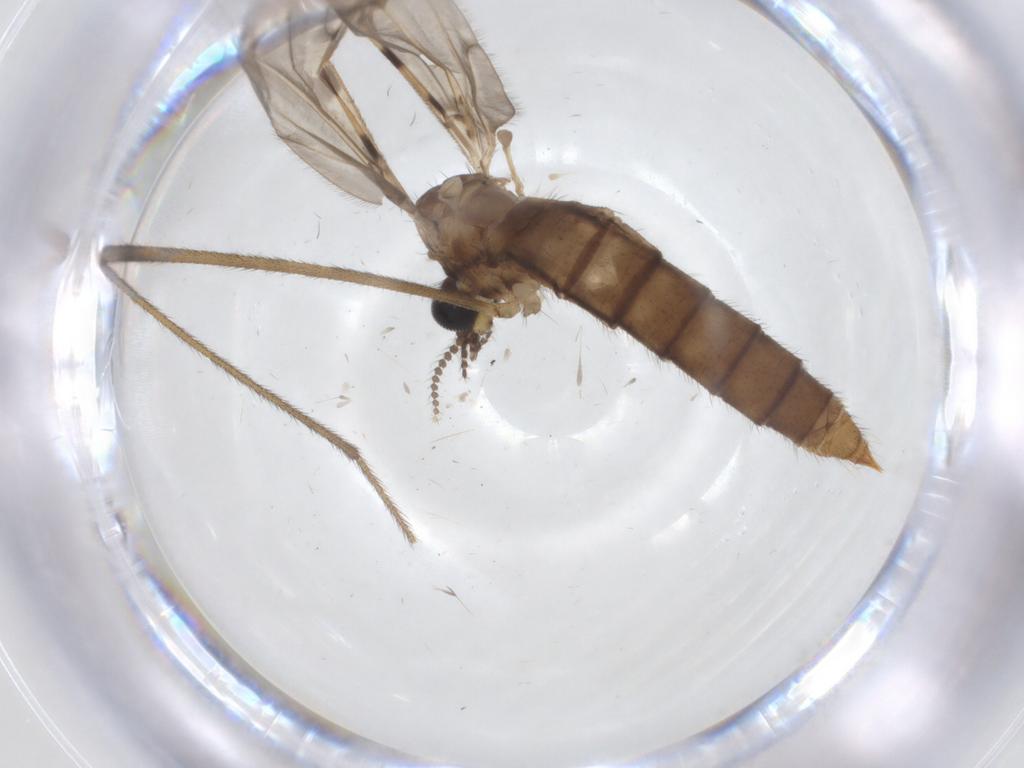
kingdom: Animalia
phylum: Arthropoda
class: Insecta
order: Diptera
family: Limoniidae
